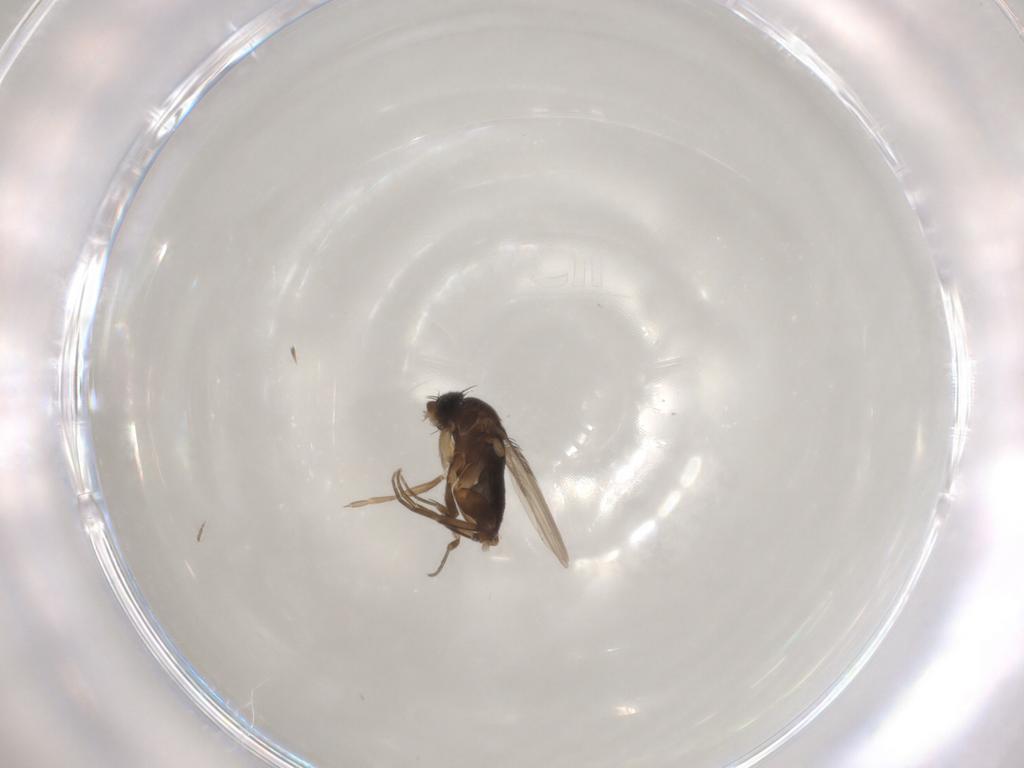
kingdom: Animalia
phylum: Arthropoda
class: Insecta
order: Diptera
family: Phoridae
